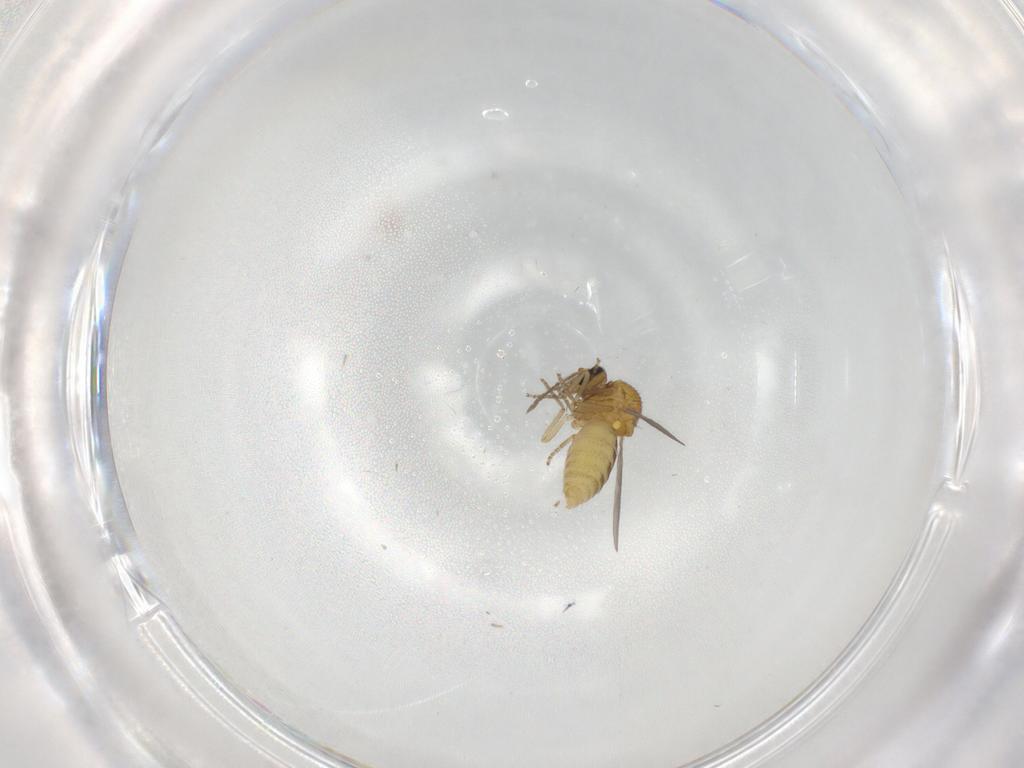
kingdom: Animalia
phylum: Arthropoda
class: Insecta
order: Diptera
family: Ceratopogonidae
